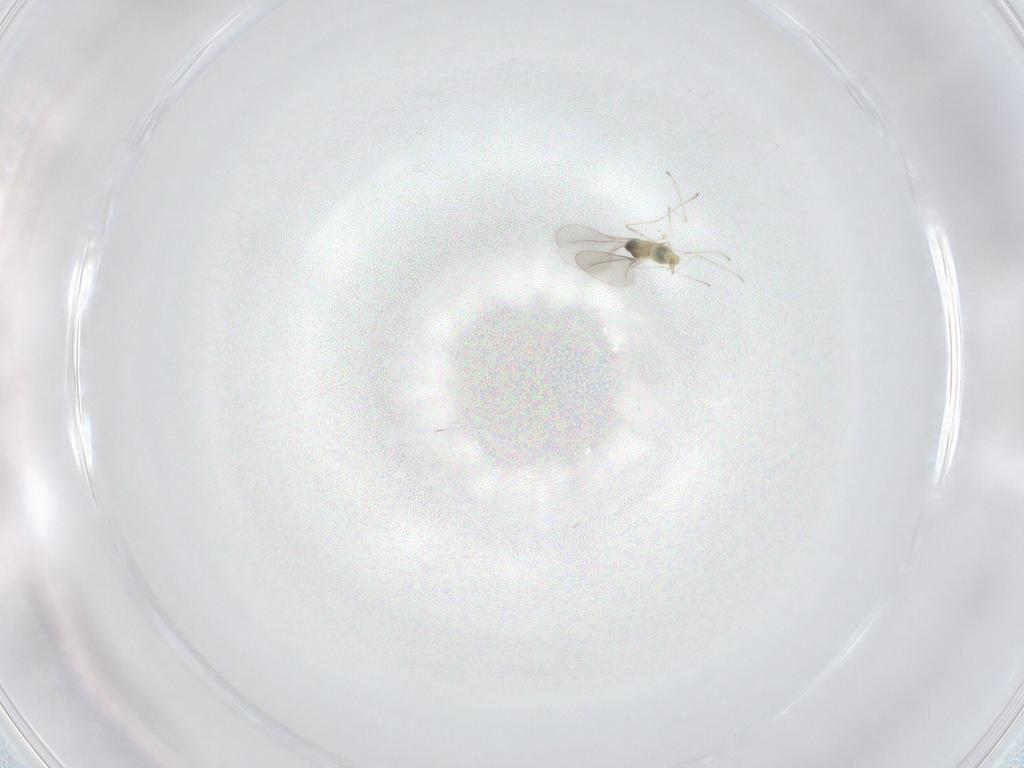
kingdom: Animalia
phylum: Arthropoda
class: Insecta
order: Diptera
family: Cecidomyiidae
